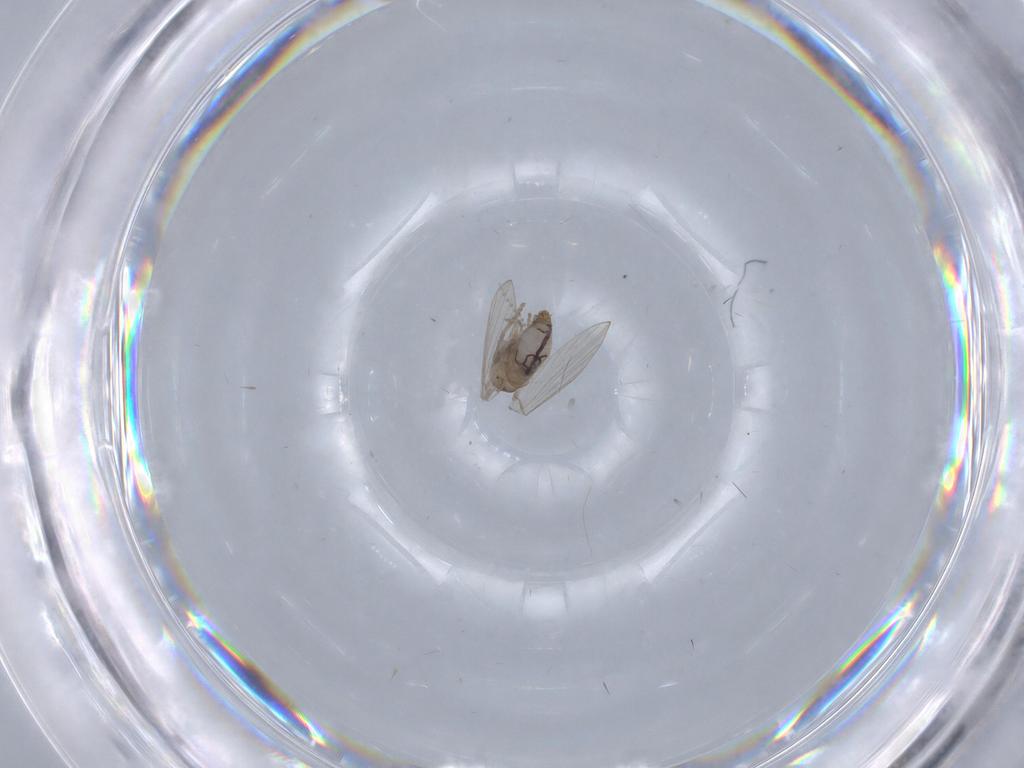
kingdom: Animalia
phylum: Arthropoda
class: Insecta
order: Diptera
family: Psychodidae
